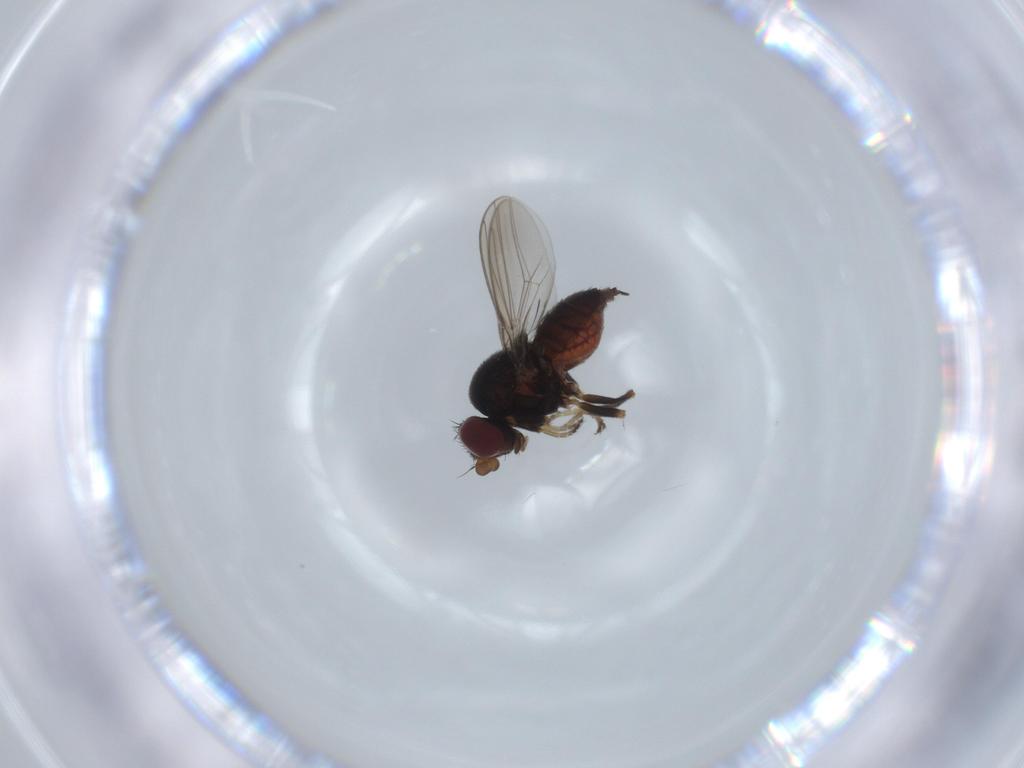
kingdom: Animalia
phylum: Arthropoda
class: Insecta
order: Diptera
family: Chloropidae
